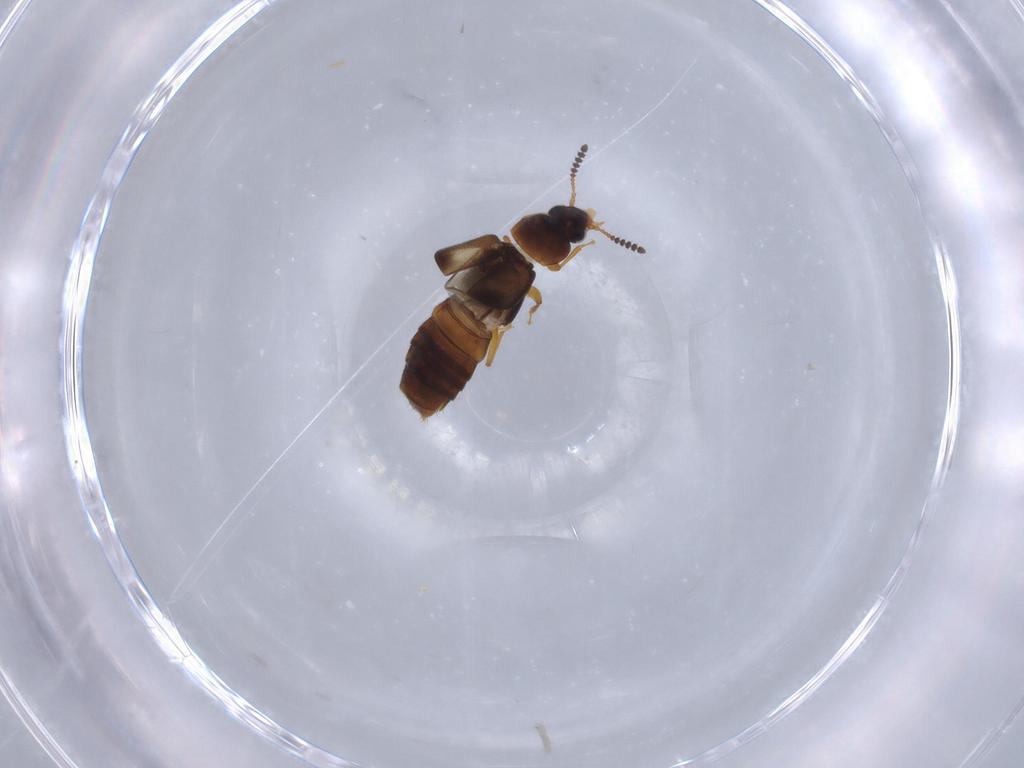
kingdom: Animalia
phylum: Arthropoda
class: Insecta
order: Coleoptera
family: Staphylinidae
